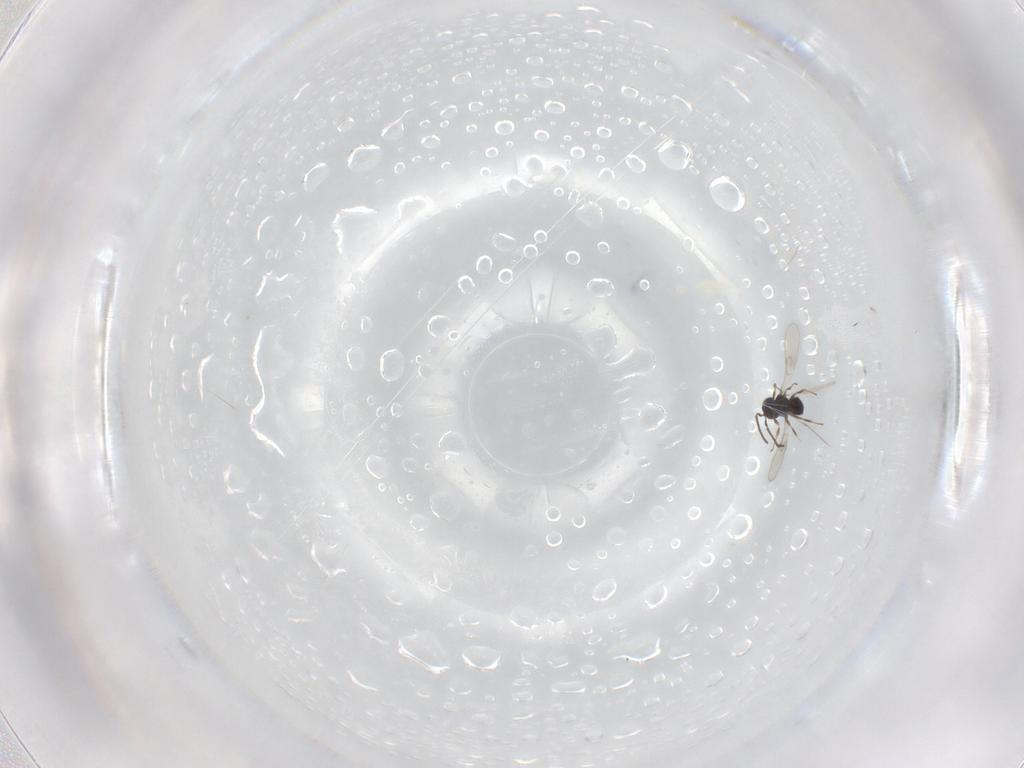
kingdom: Animalia
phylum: Arthropoda
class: Insecta
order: Hymenoptera
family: Scelionidae
